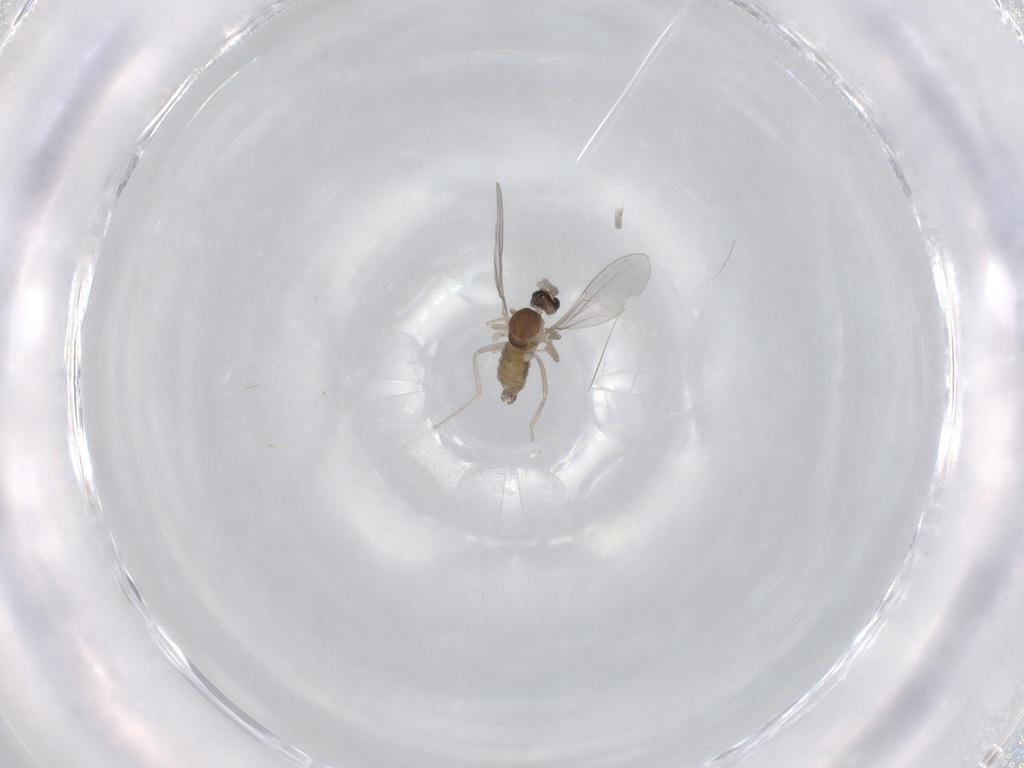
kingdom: Animalia
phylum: Arthropoda
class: Insecta
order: Diptera
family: Cecidomyiidae
